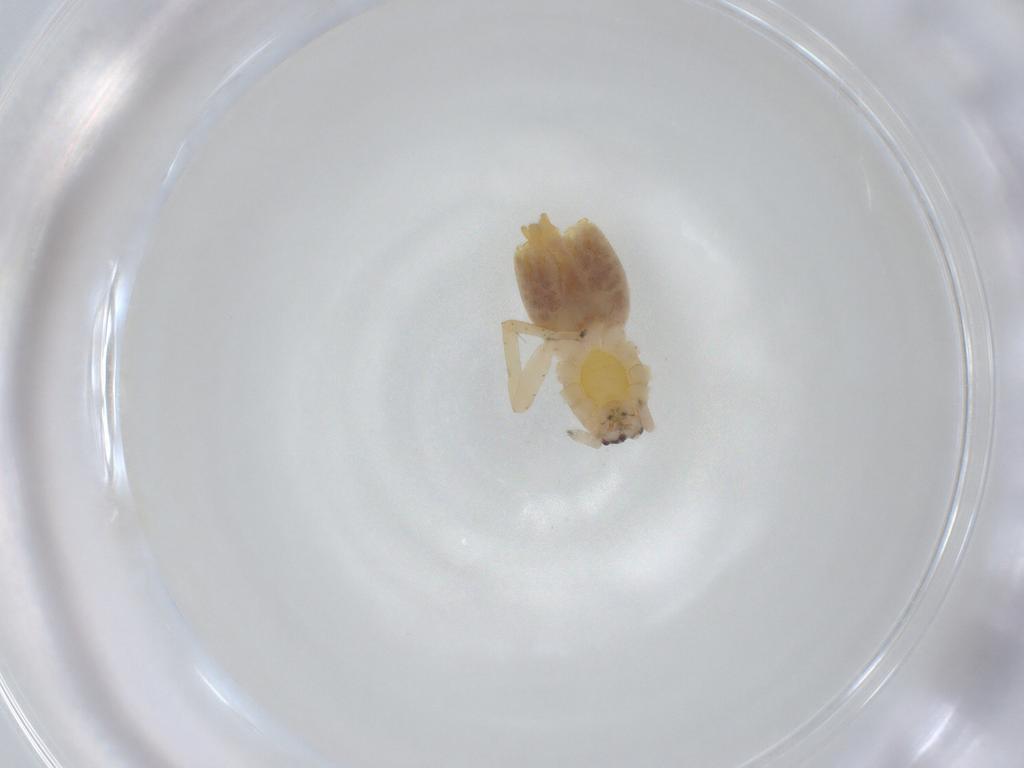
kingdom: Animalia
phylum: Arthropoda
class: Arachnida
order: Araneae
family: Clubionidae
